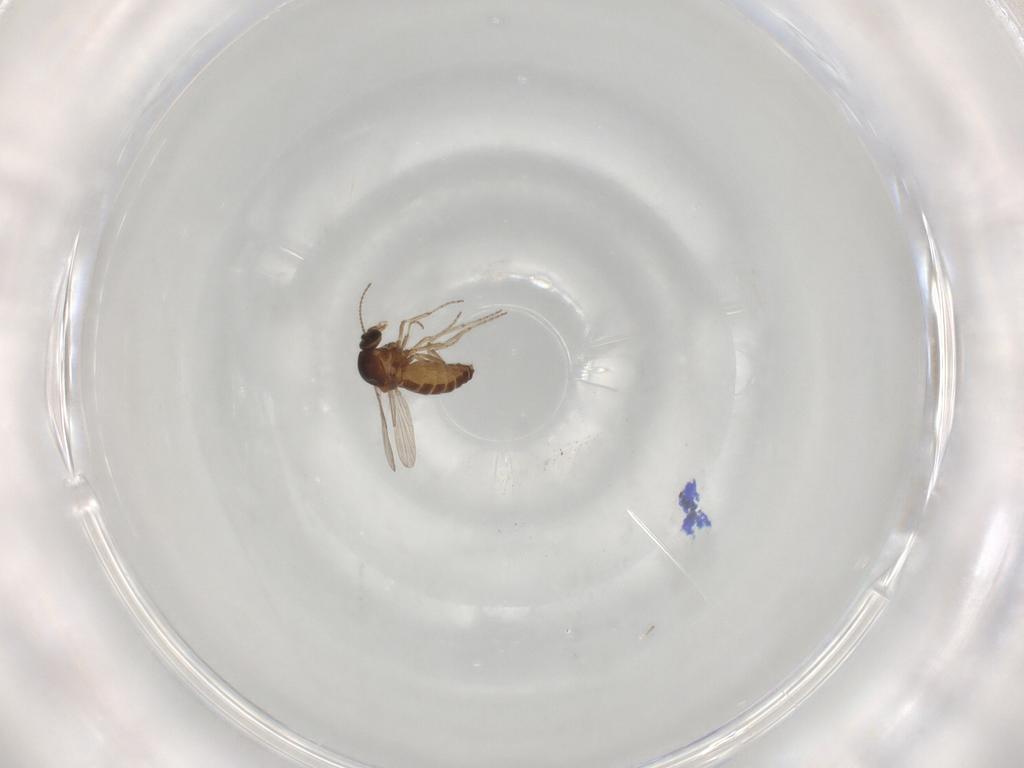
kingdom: Animalia
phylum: Arthropoda
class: Insecta
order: Diptera
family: Ceratopogonidae
